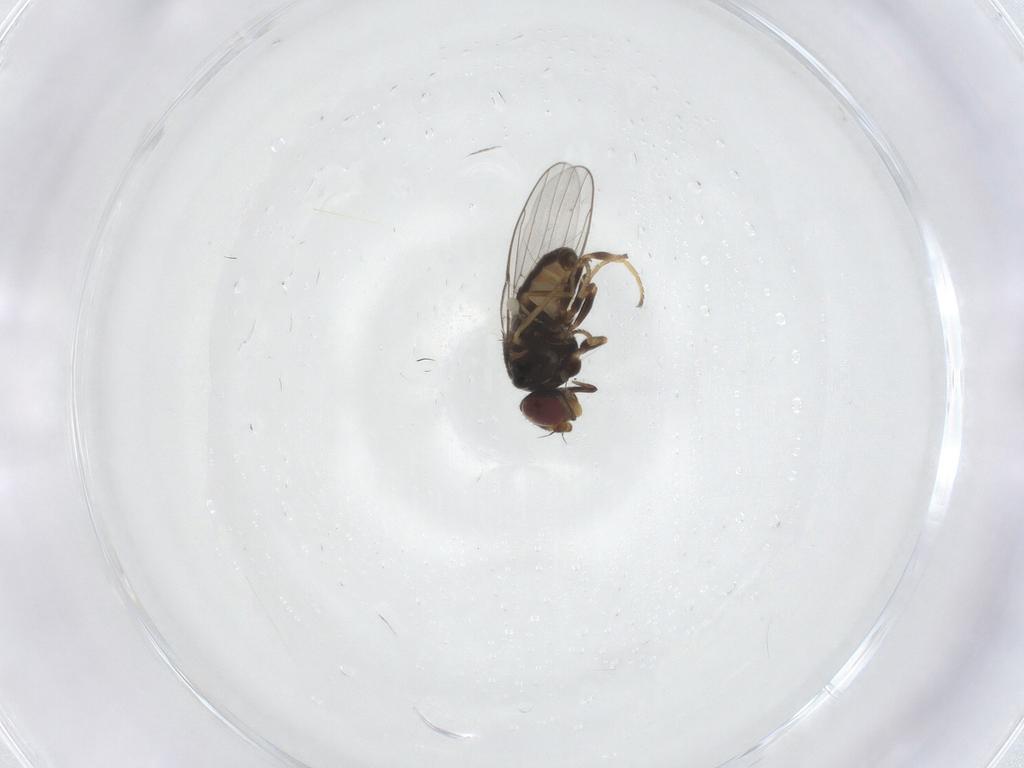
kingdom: Animalia
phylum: Arthropoda
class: Insecta
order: Diptera
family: Chloropidae
